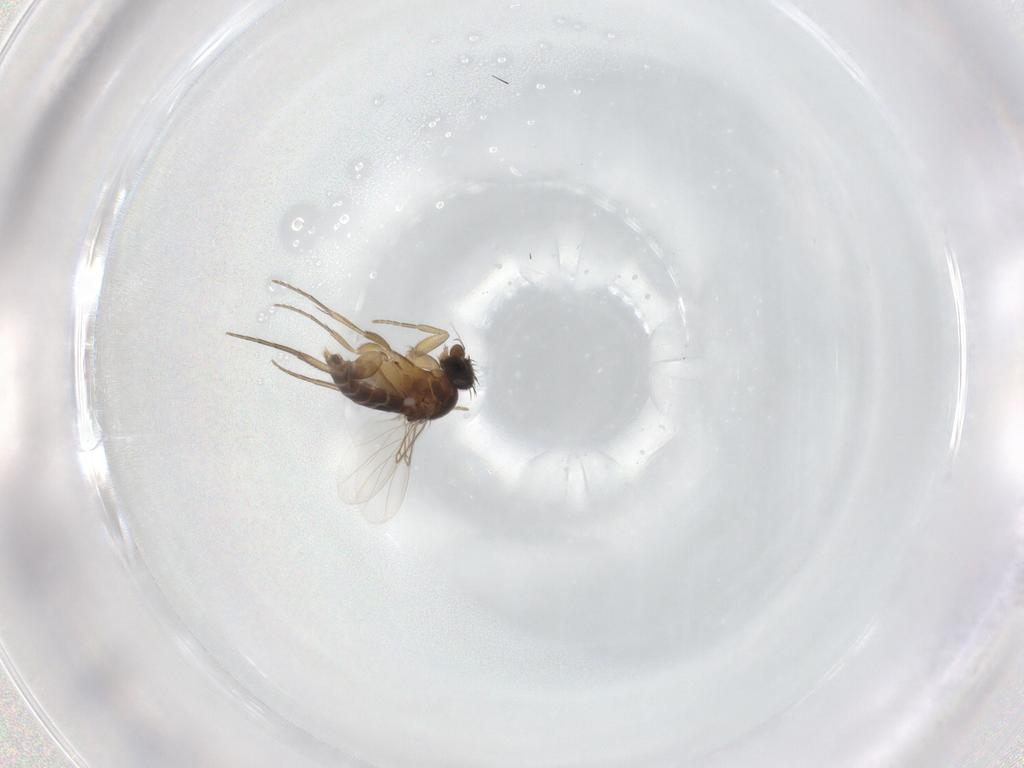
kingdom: Animalia
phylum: Arthropoda
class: Insecta
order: Diptera
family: Phoridae
